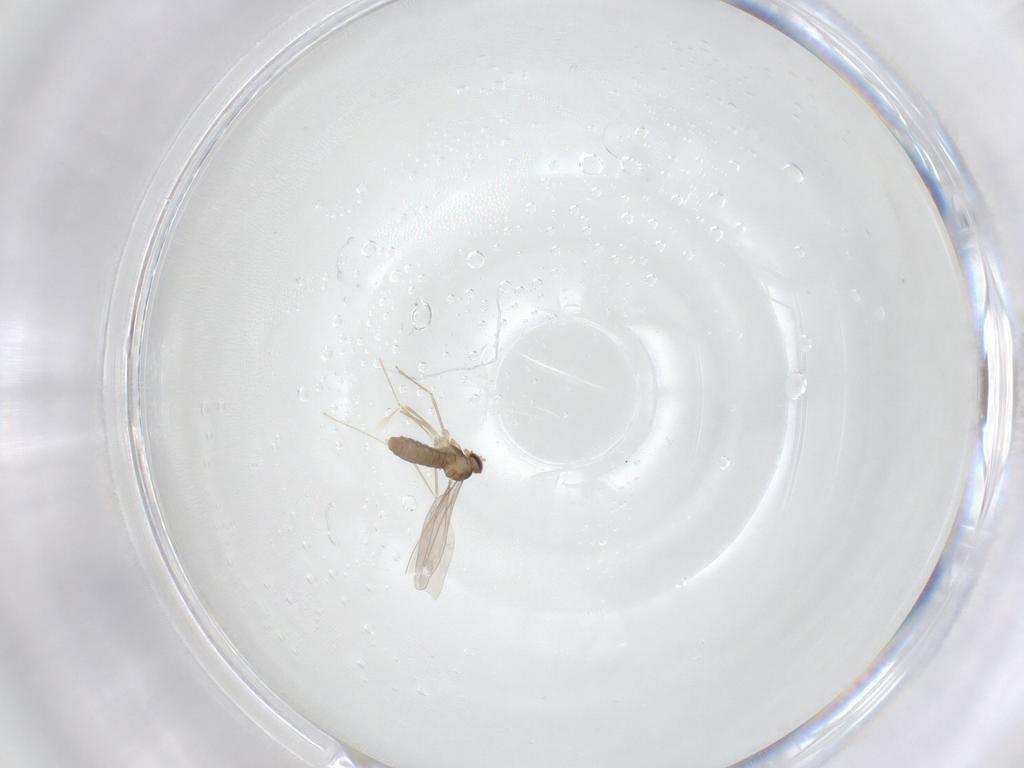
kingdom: Animalia
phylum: Arthropoda
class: Insecta
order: Diptera
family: Cecidomyiidae
